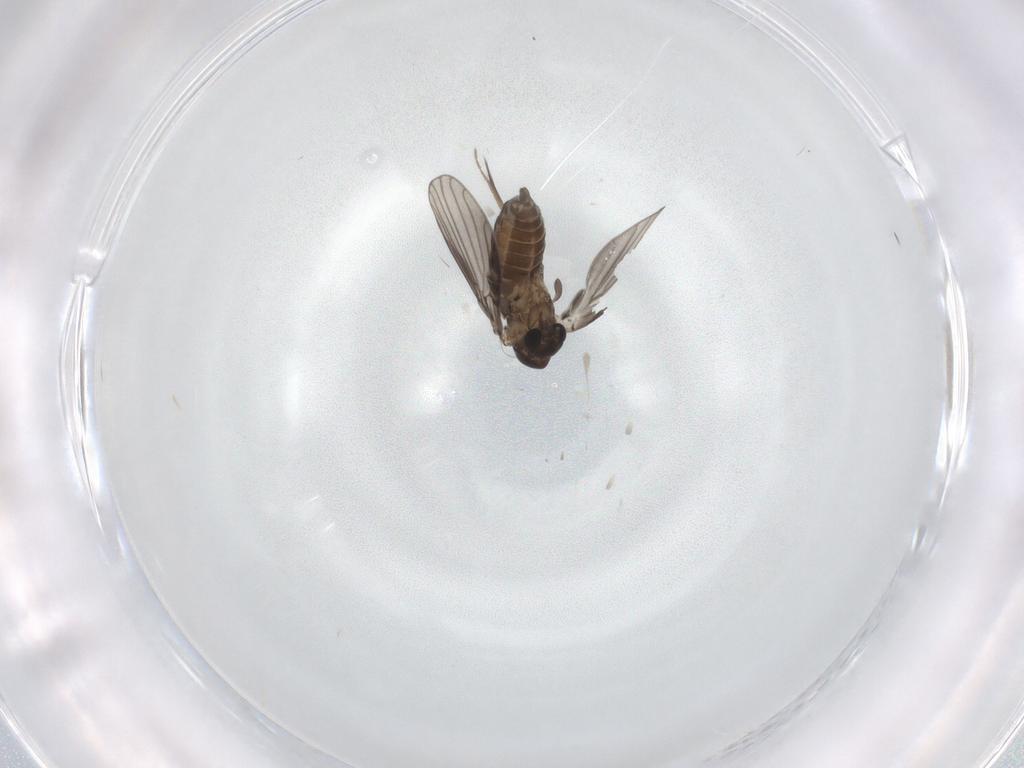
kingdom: Animalia
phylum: Arthropoda
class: Insecta
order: Diptera
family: Ceratopogonidae
